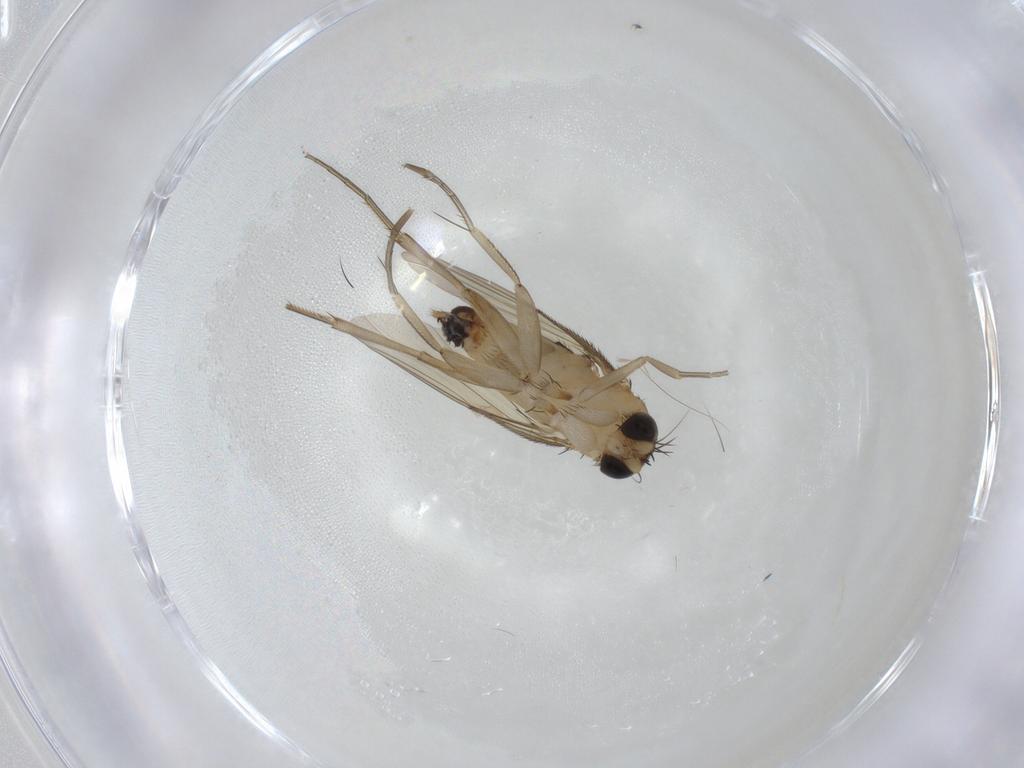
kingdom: Animalia
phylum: Arthropoda
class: Insecta
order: Diptera
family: Phoridae
